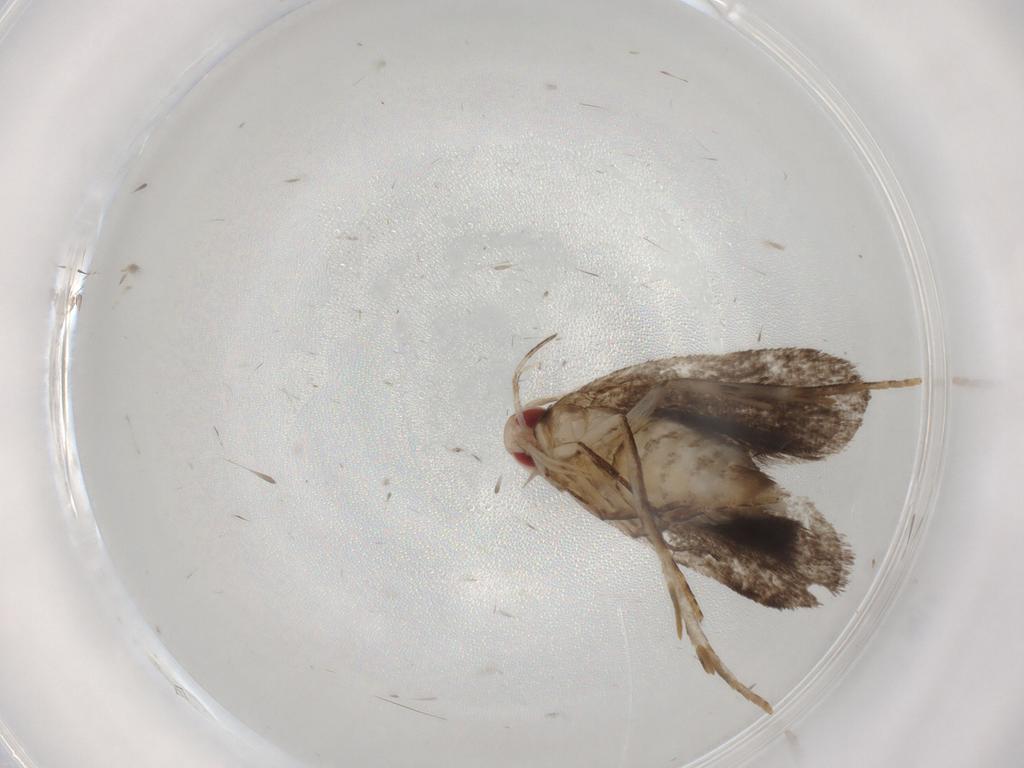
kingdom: Animalia
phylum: Arthropoda
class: Insecta
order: Lepidoptera
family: Gelechiidae
